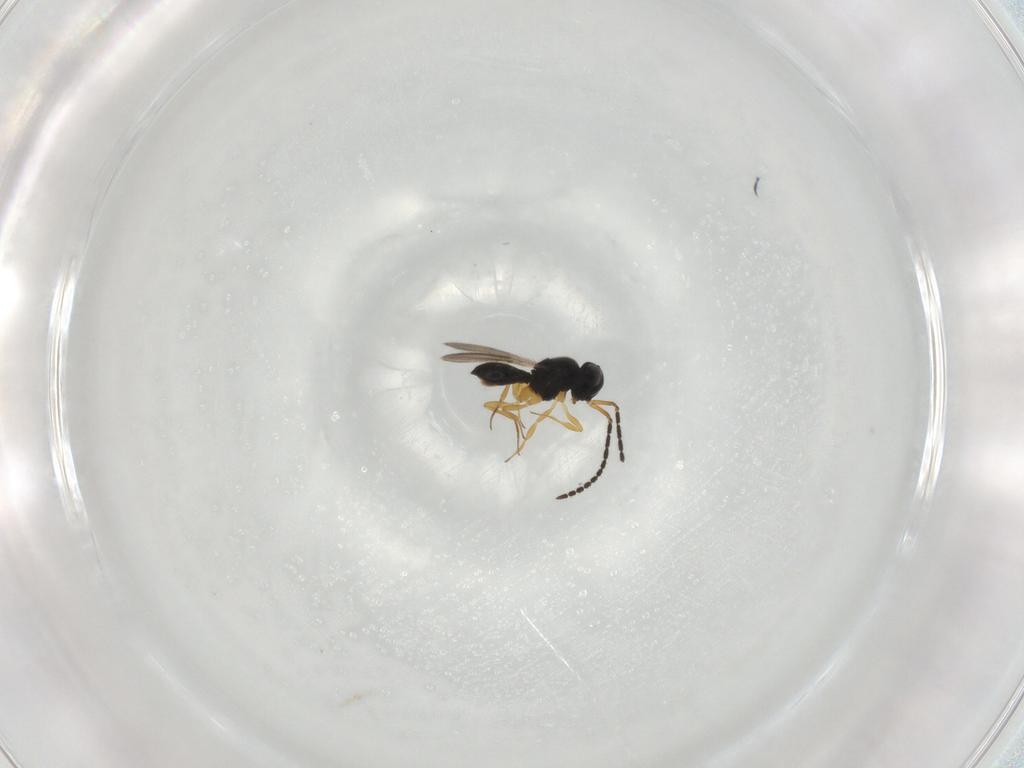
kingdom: Animalia
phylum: Arthropoda
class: Insecta
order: Hymenoptera
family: Scelionidae
